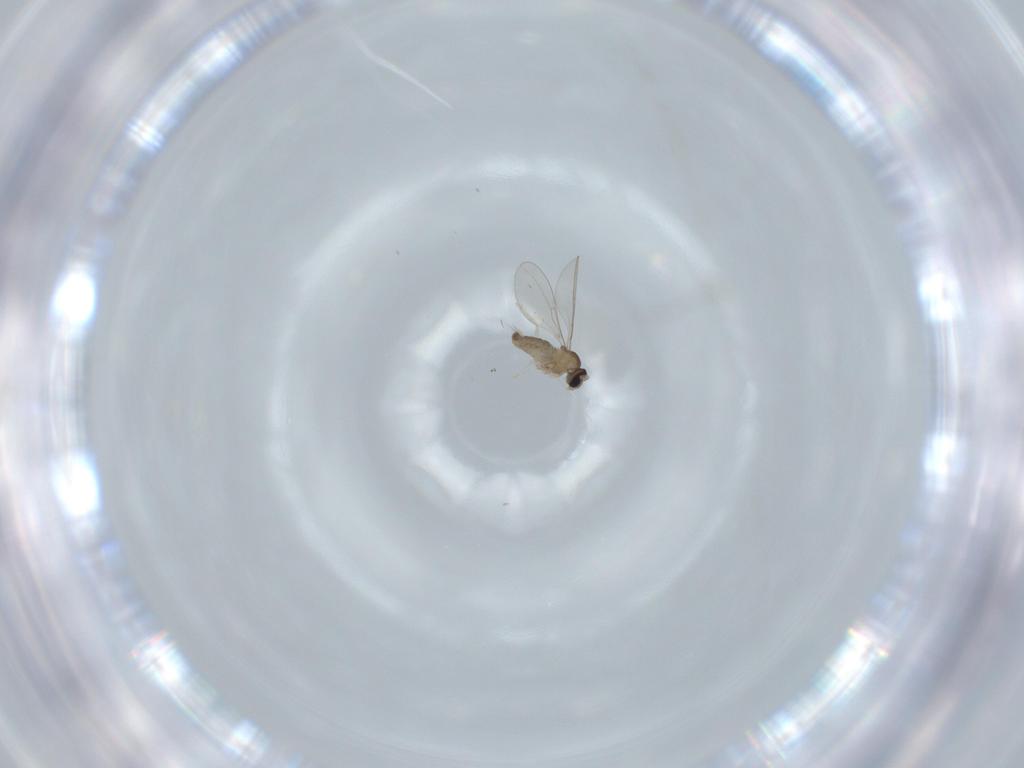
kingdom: Animalia
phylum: Arthropoda
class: Insecta
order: Diptera
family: Cecidomyiidae
